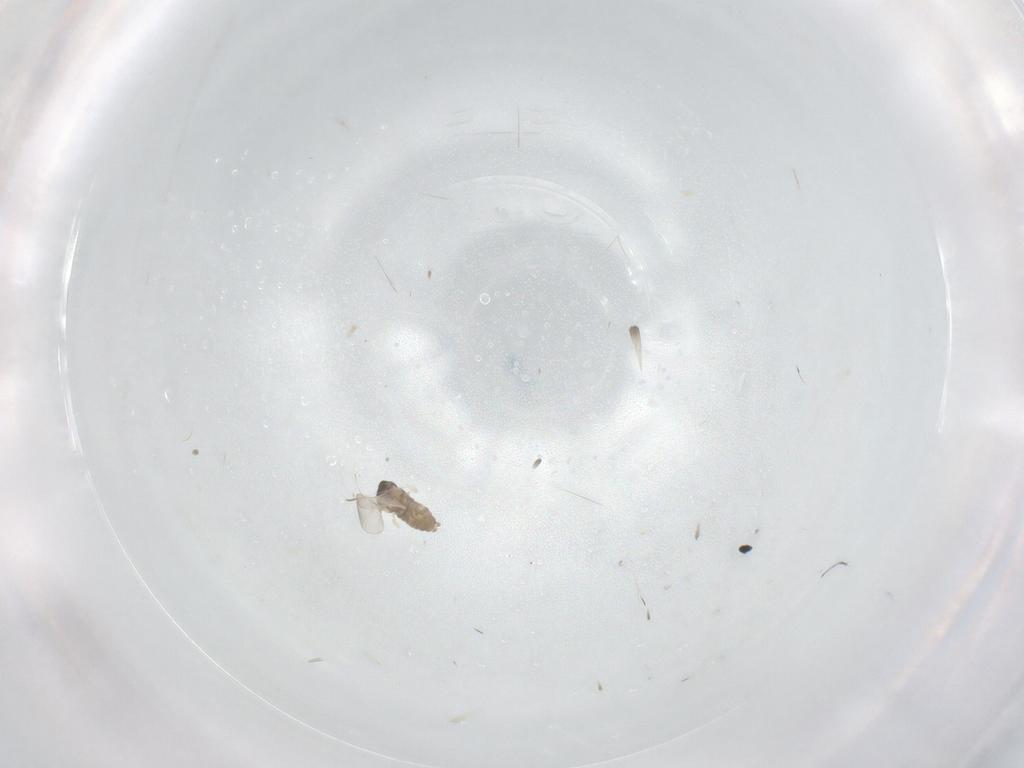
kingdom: Animalia
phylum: Arthropoda
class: Insecta
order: Diptera
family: Cecidomyiidae
